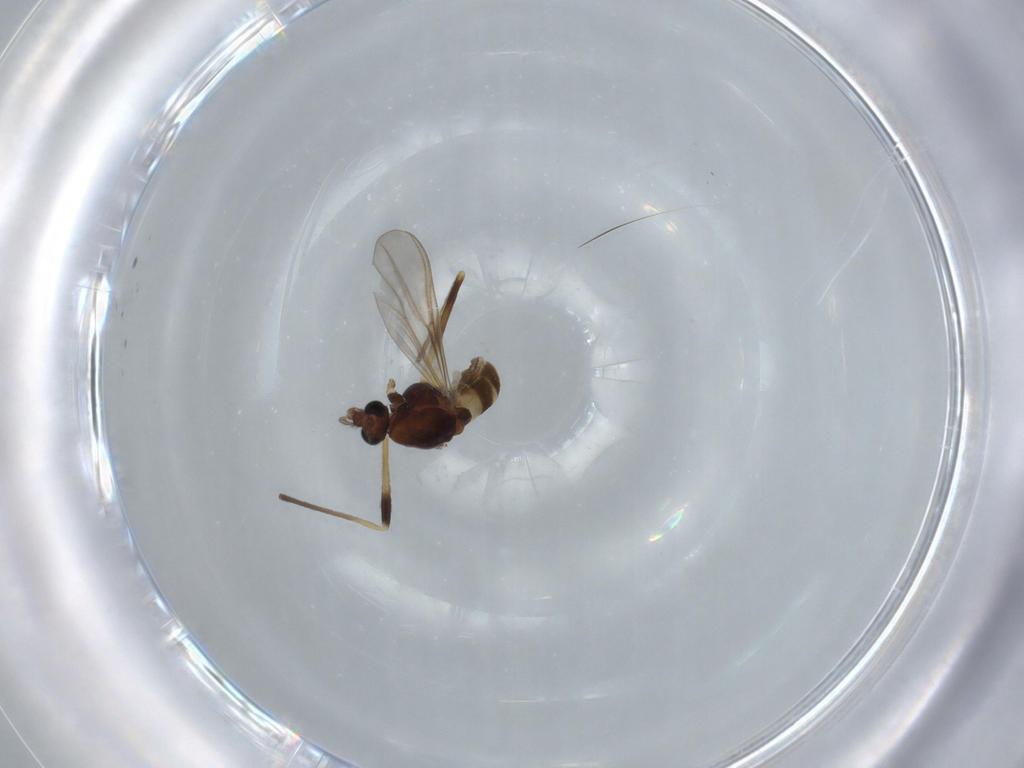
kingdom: Animalia
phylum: Arthropoda
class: Insecta
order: Diptera
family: Chironomidae
